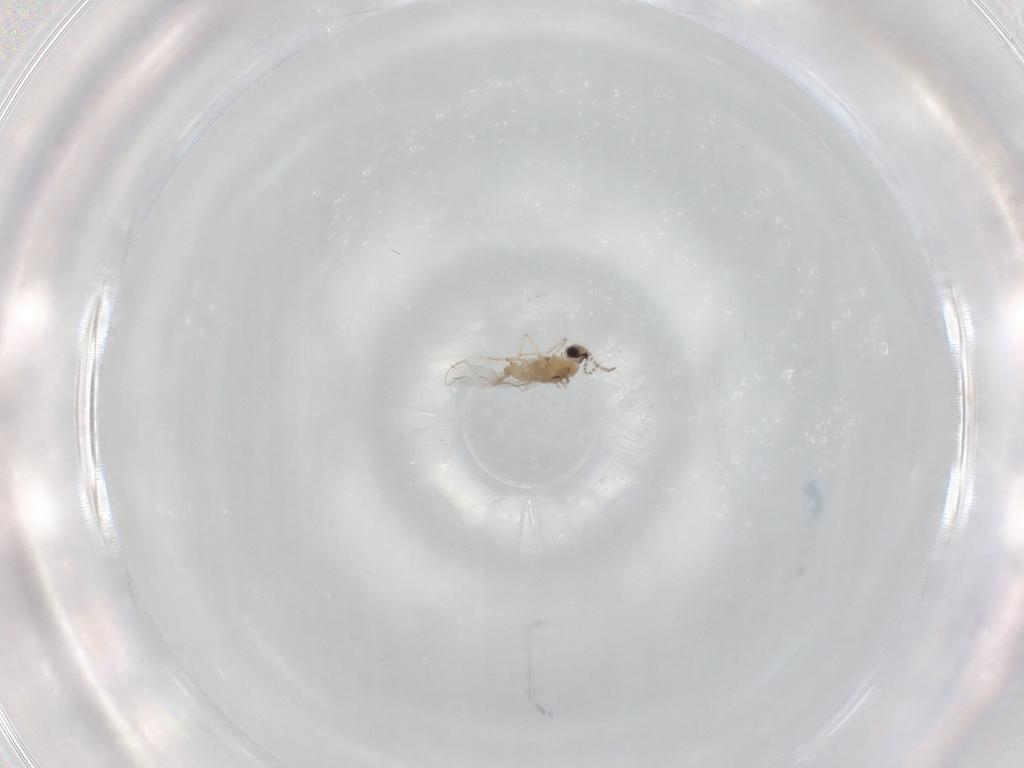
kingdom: Animalia
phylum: Arthropoda
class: Insecta
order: Diptera
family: Cecidomyiidae
